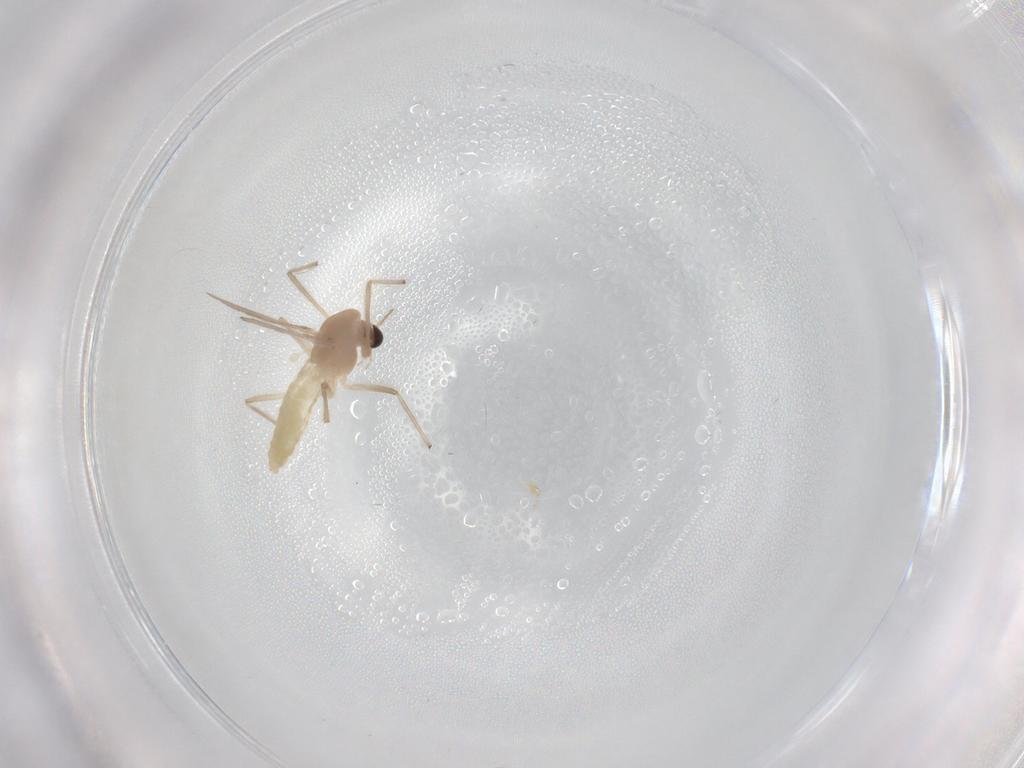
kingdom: Animalia
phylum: Arthropoda
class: Insecta
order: Diptera
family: Chironomidae
